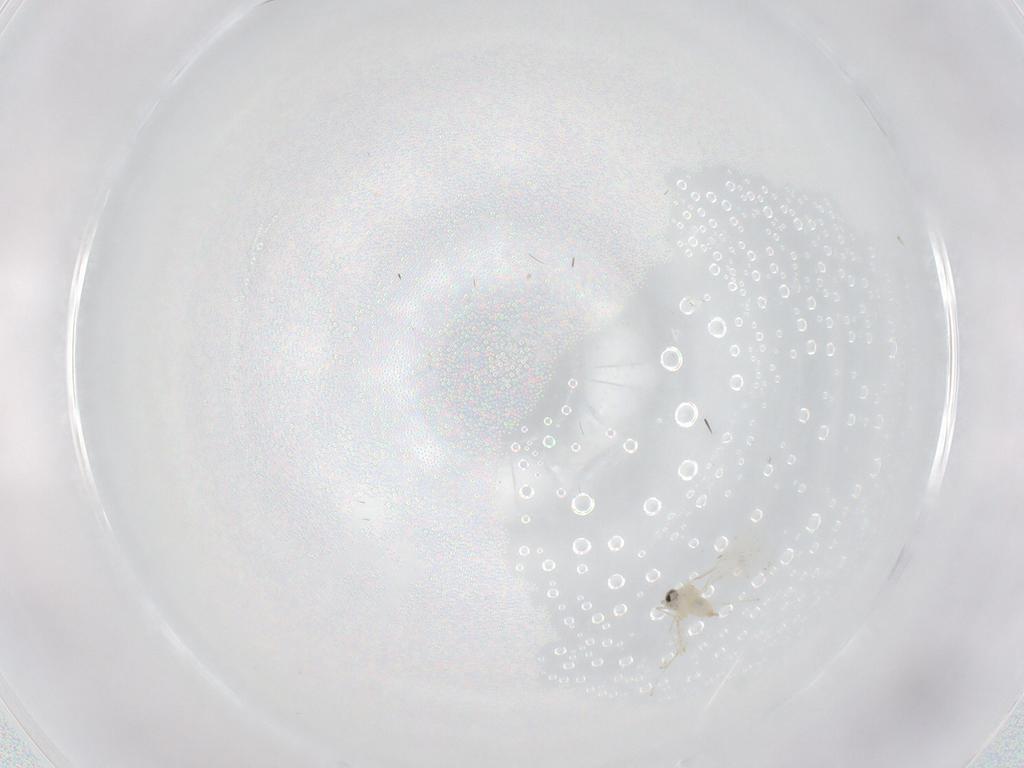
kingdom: Animalia
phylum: Arthropoda
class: Insecta
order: Diptera
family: Cecidomyiidae
